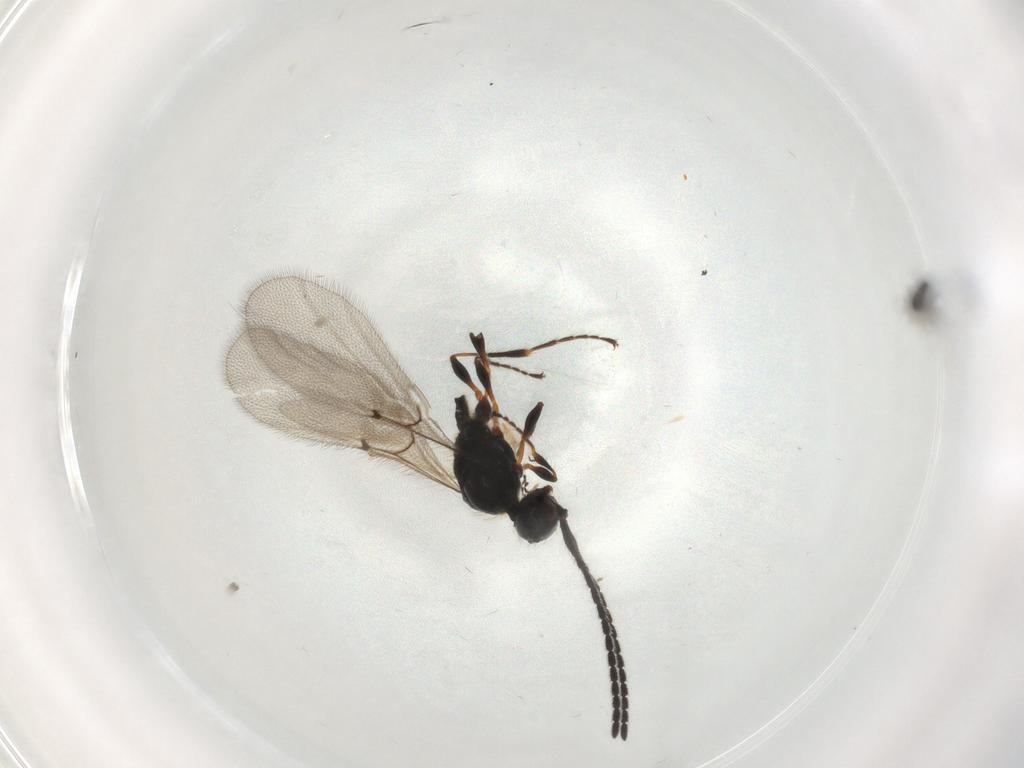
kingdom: Animalia
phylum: Arthropoda
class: Insecta
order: Hymenoptera
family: Diapriidae
